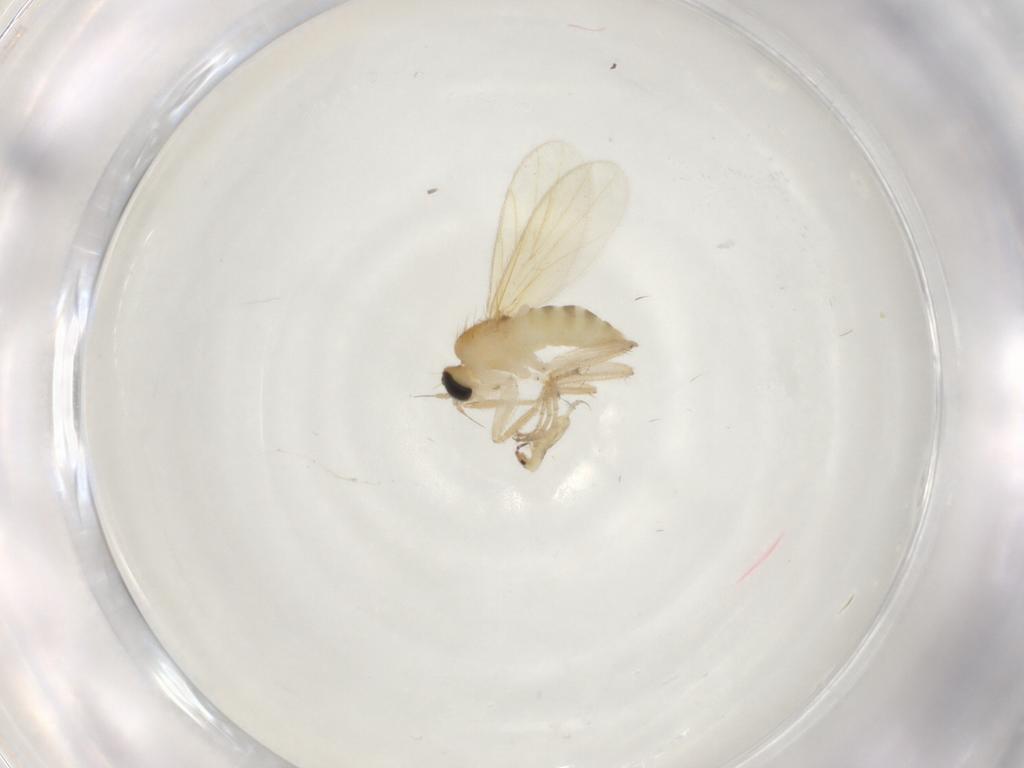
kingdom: Animalia
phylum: Arthropoda
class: Insecta
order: Diptera
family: Hybotidae
